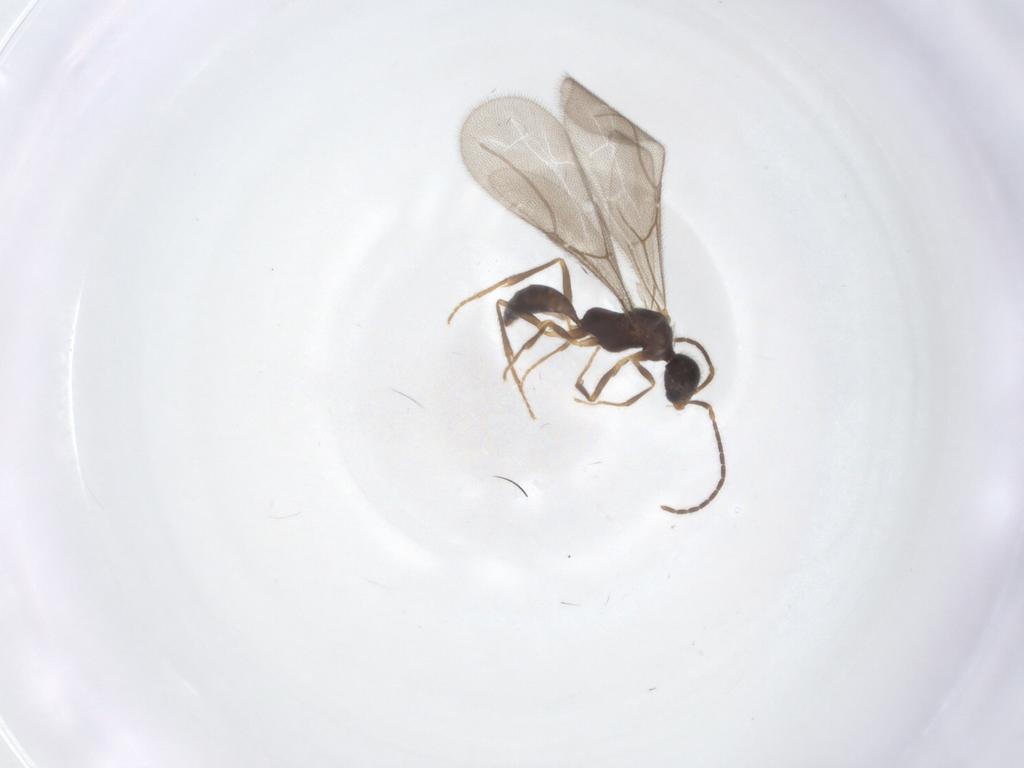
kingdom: Animalia
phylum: Arthropoda
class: Insecta
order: Hymenoptera
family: Bethylidae
